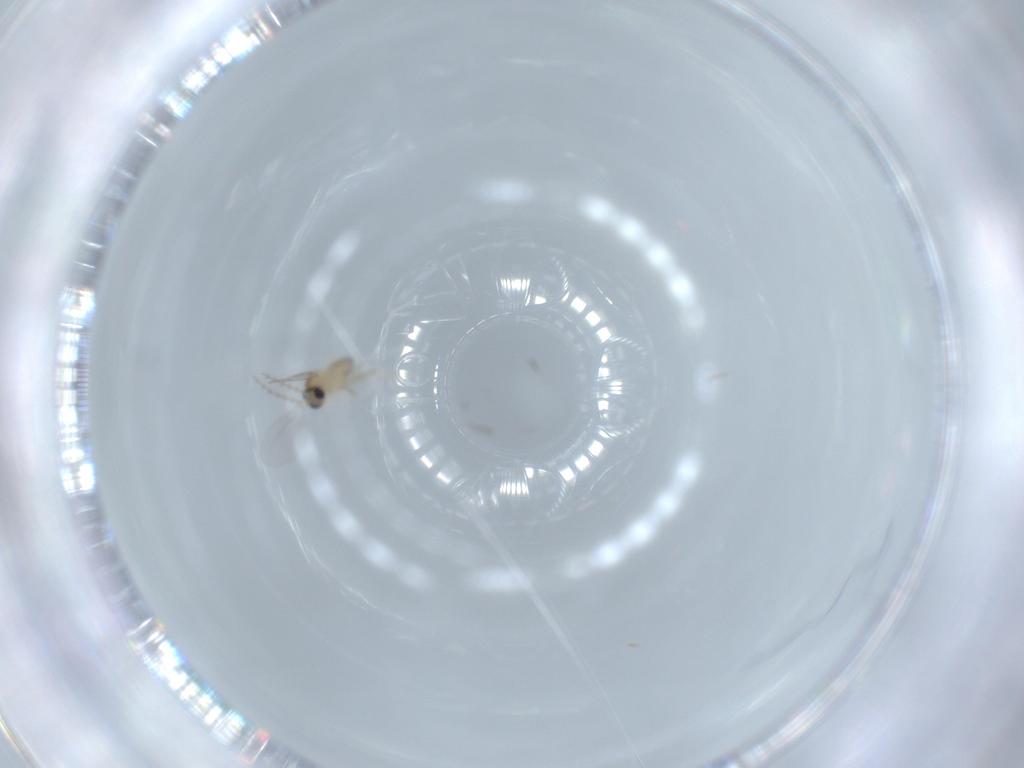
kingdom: Animalia
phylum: Arthropoda
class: Insecta
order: Diptera
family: Cecidomyiidae
